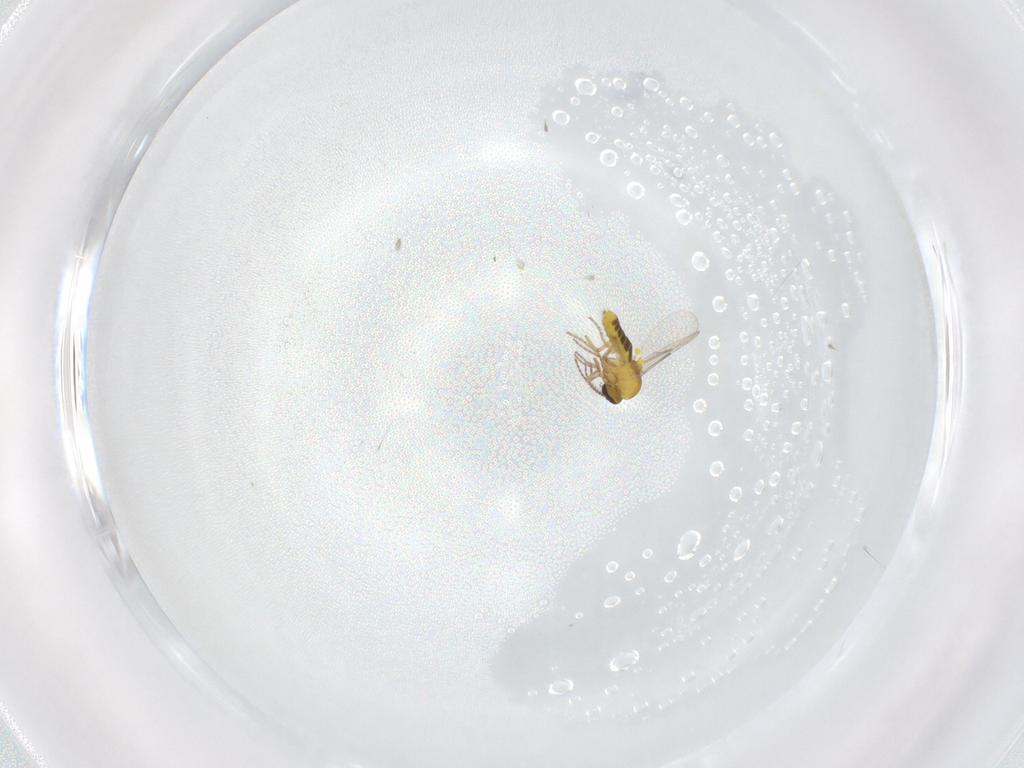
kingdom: Animalia
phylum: Arthropoda
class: Insecta
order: Diptera
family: Ceratopogonidae
